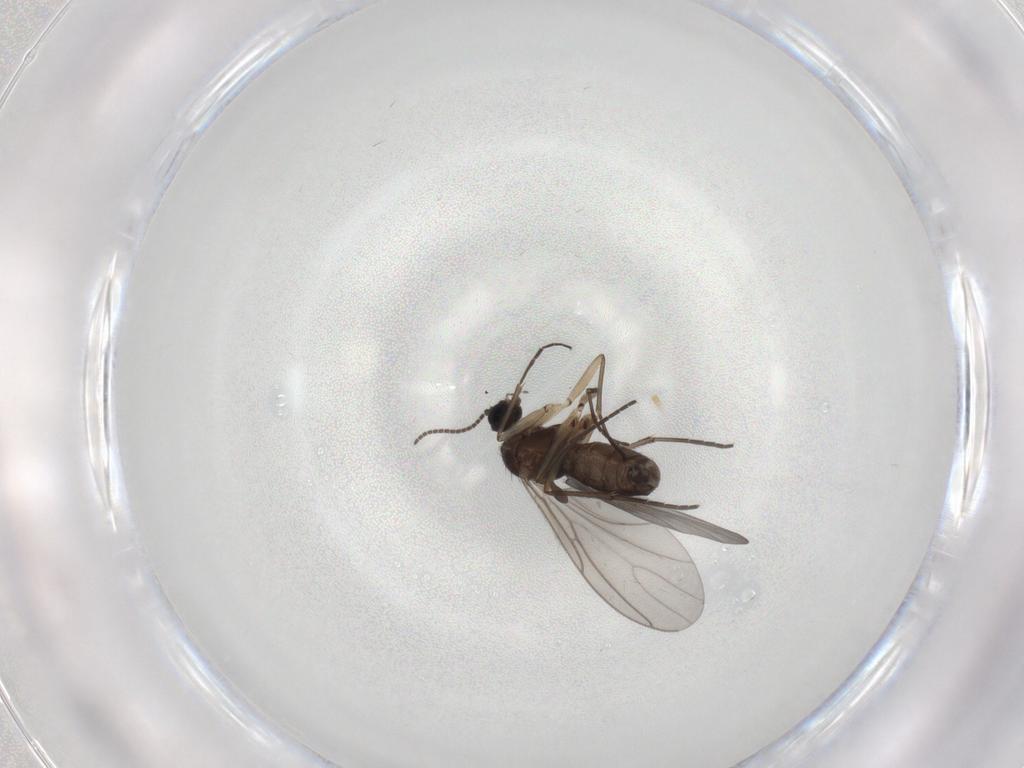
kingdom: Animalia
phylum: Arthropoda
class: Insecta
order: Diptera
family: Sciaridae
